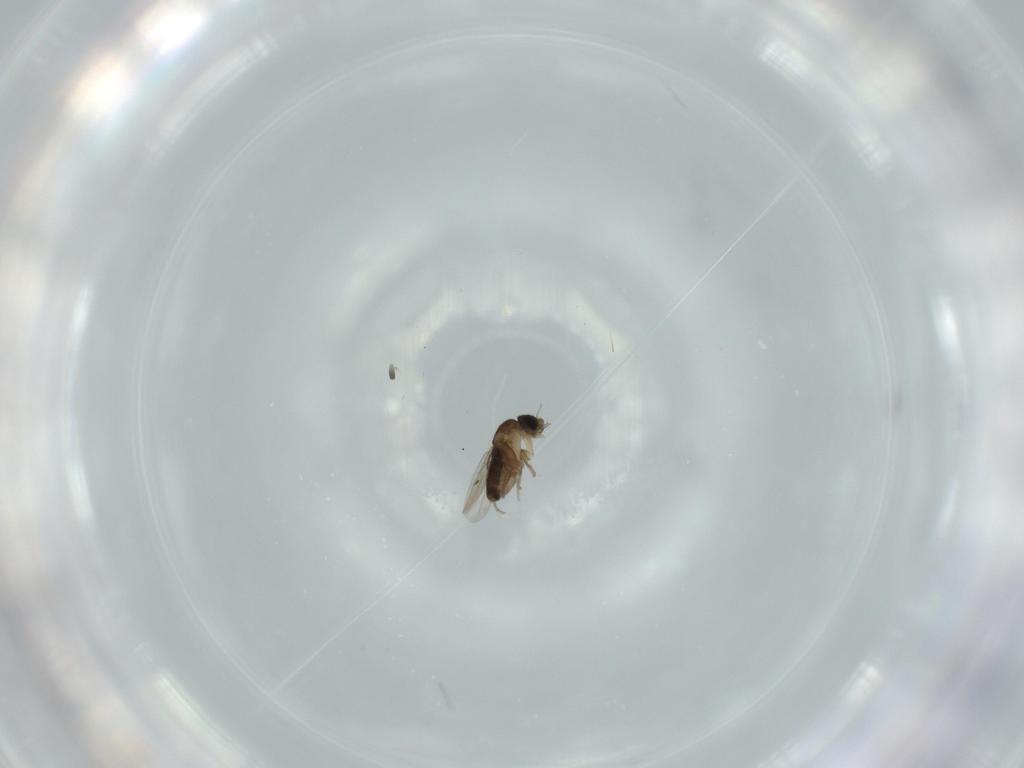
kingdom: Animalia
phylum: Arthropoda
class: Insecta
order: Diptera
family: Phoridae
